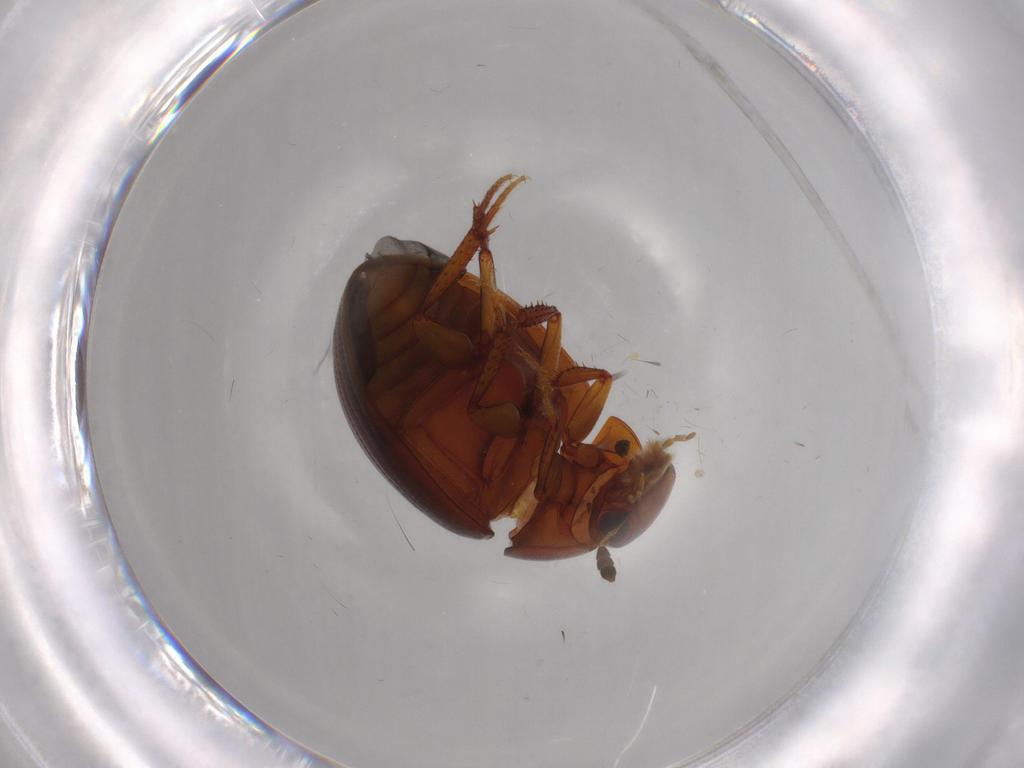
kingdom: Animalia
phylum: Arthropoda
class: Insecta
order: Coleoptera
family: Hydrophilidae
